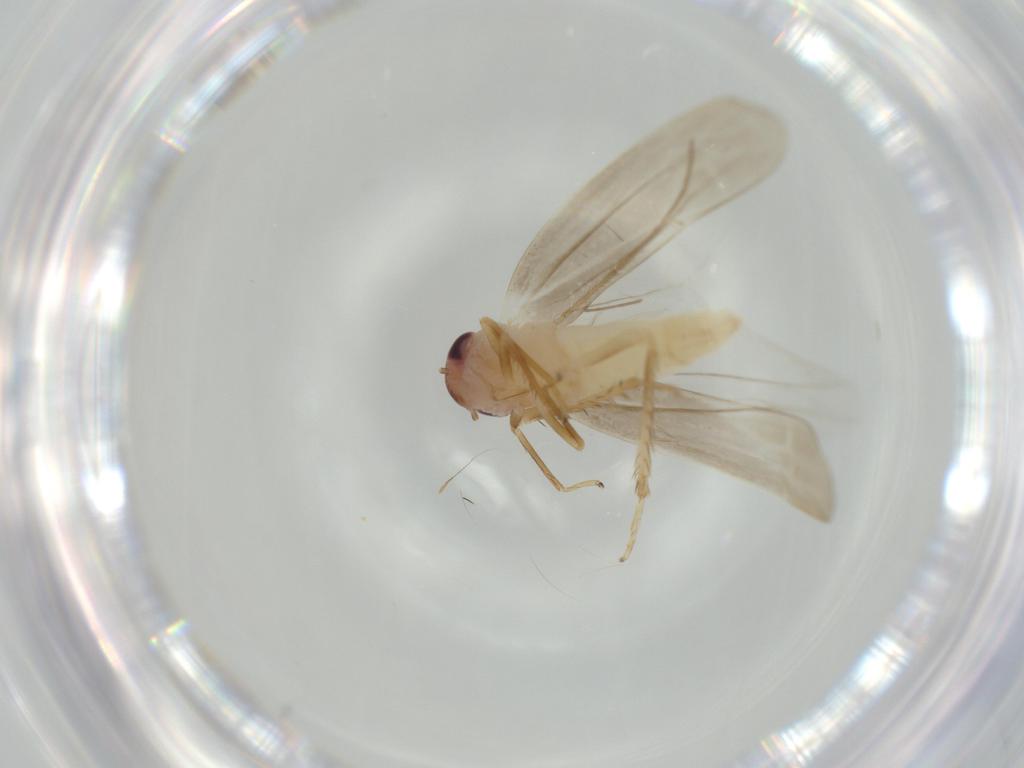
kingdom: Animalia
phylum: Arthropoda
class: Insecta
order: Hemiptera
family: Cicadellidae
